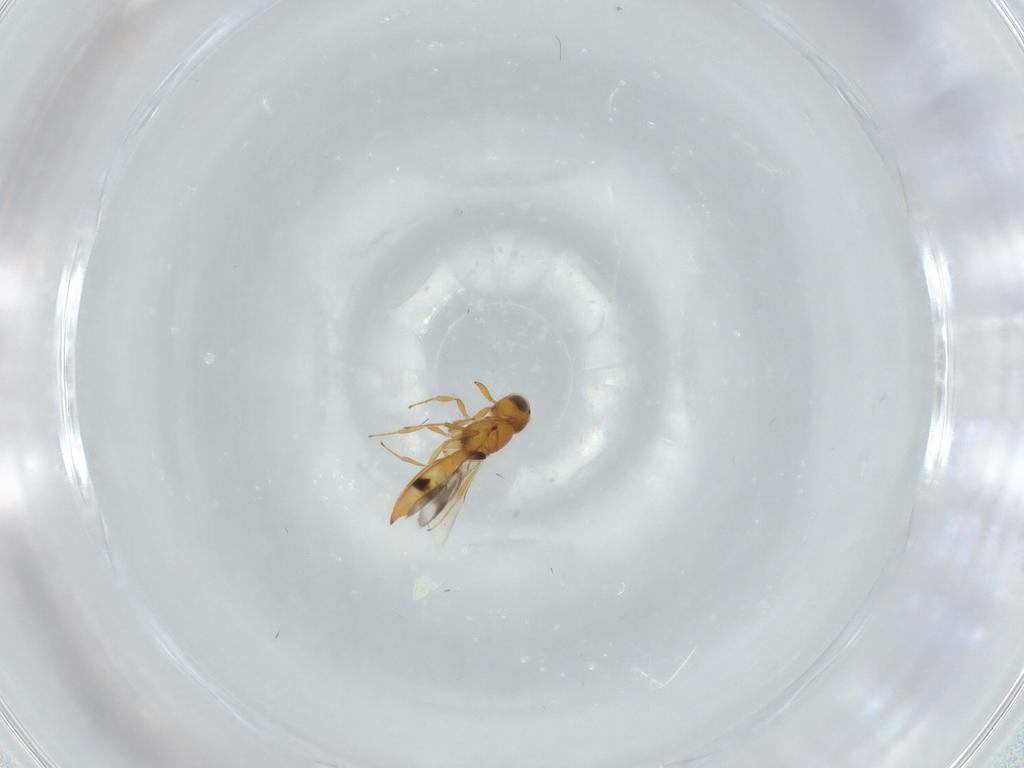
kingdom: Animalia
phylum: Arthropoda
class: Insecta
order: Hymenoptera
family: Scelionidae
